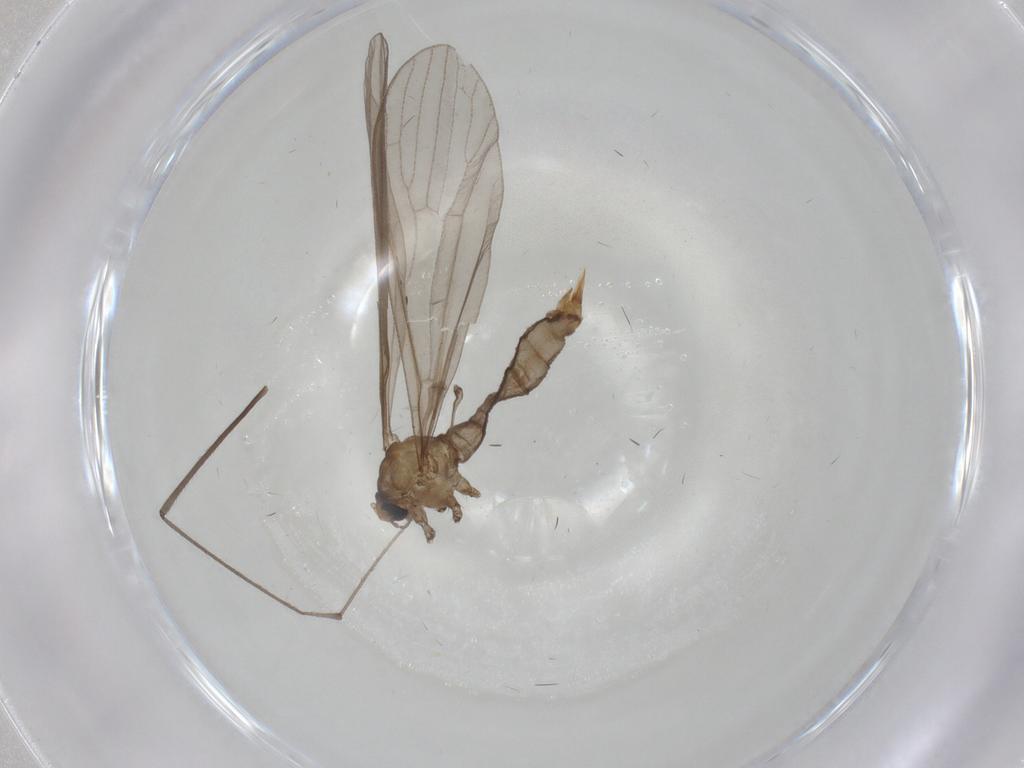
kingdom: Animalia
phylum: Arthropoda
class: Insecta
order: Diptera
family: Limoniidae
